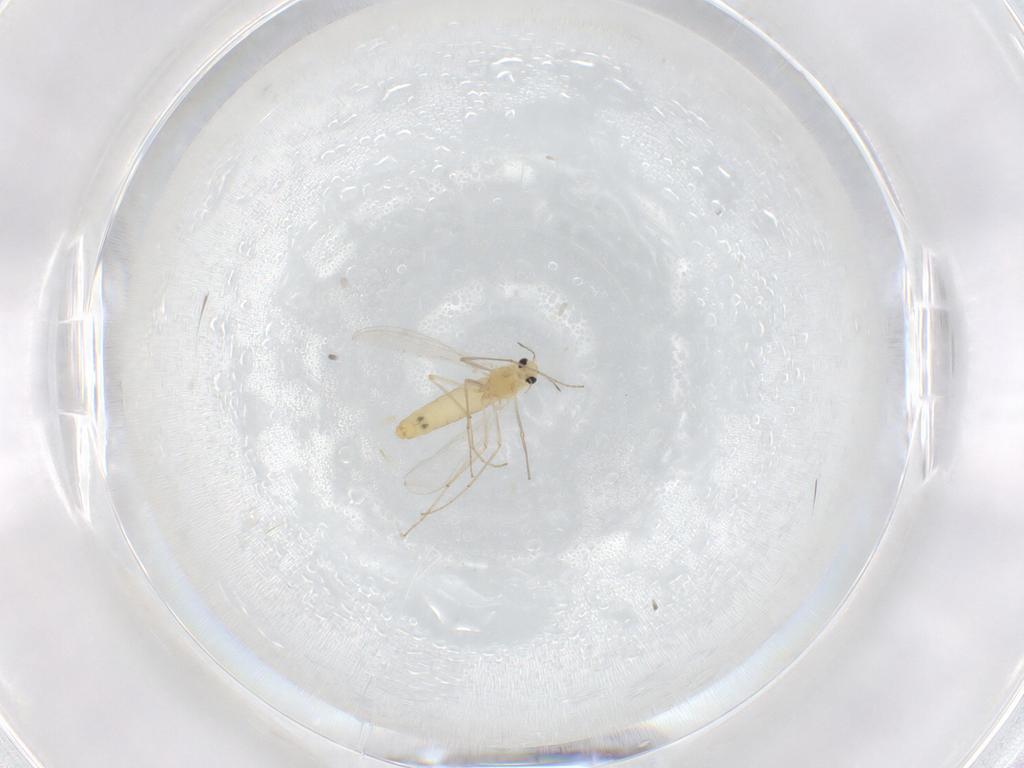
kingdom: Animalia
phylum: Arthropoda
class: Insecta
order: Diptera
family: Chironomidae
